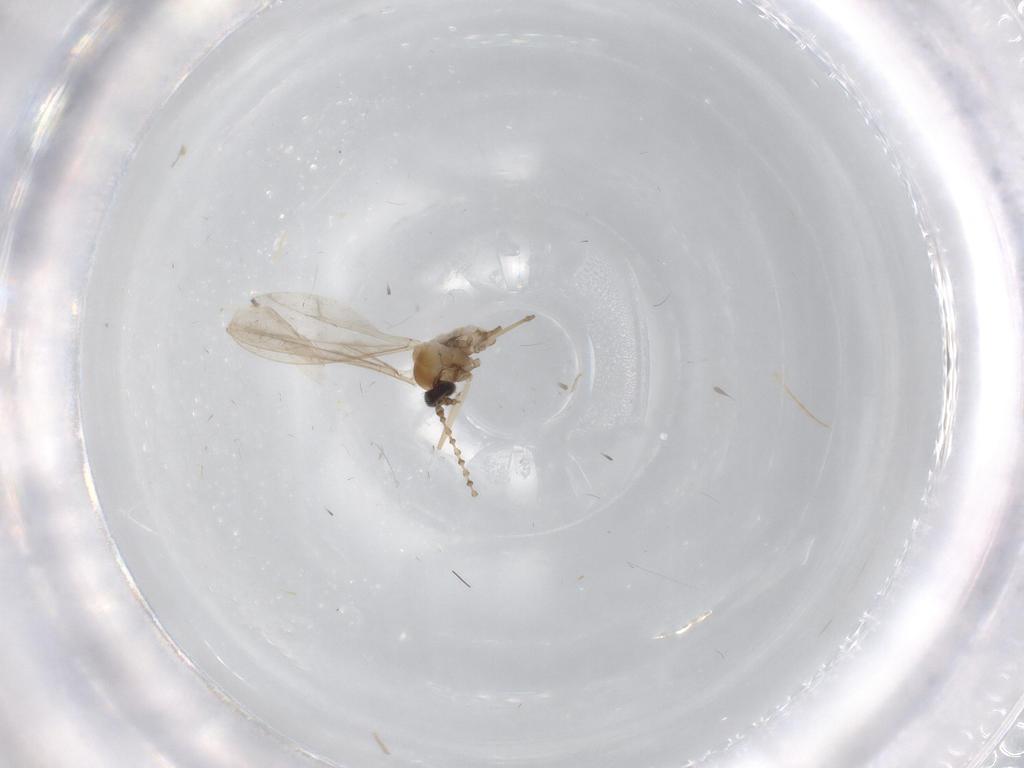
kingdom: Animalia
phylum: Arthropoda
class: Insecta
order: Diptera
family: Cecidomyiidae
